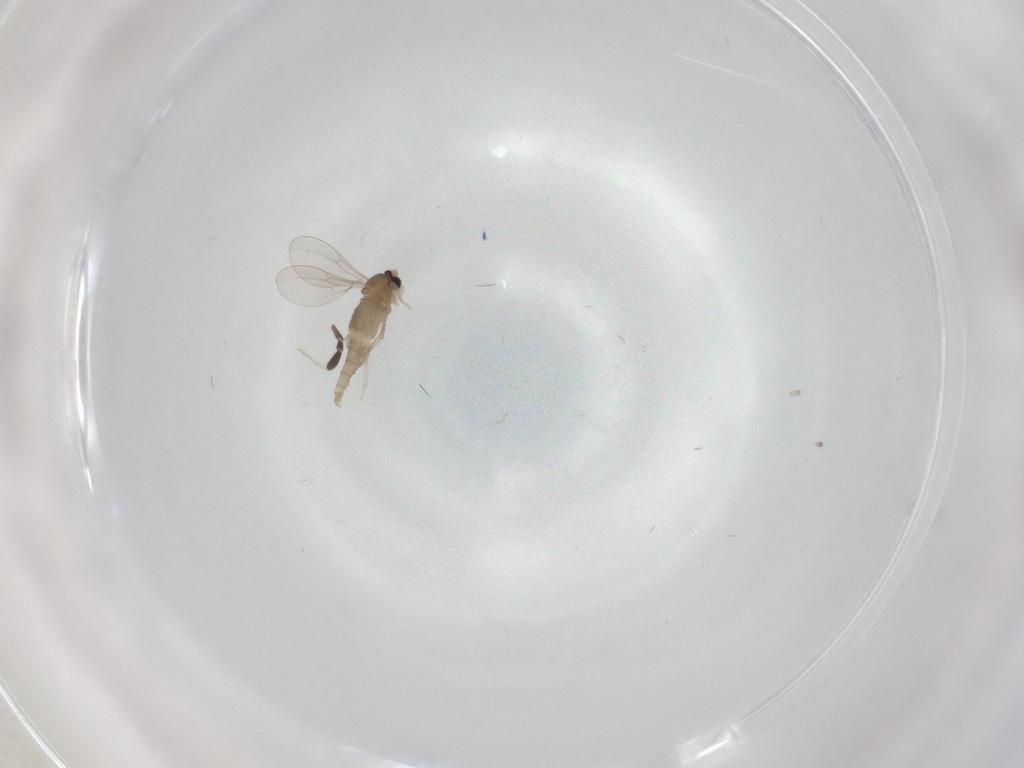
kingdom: Animalia
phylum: Arthropoda
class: Insecta
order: Diptera
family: Cecidomyiidae
